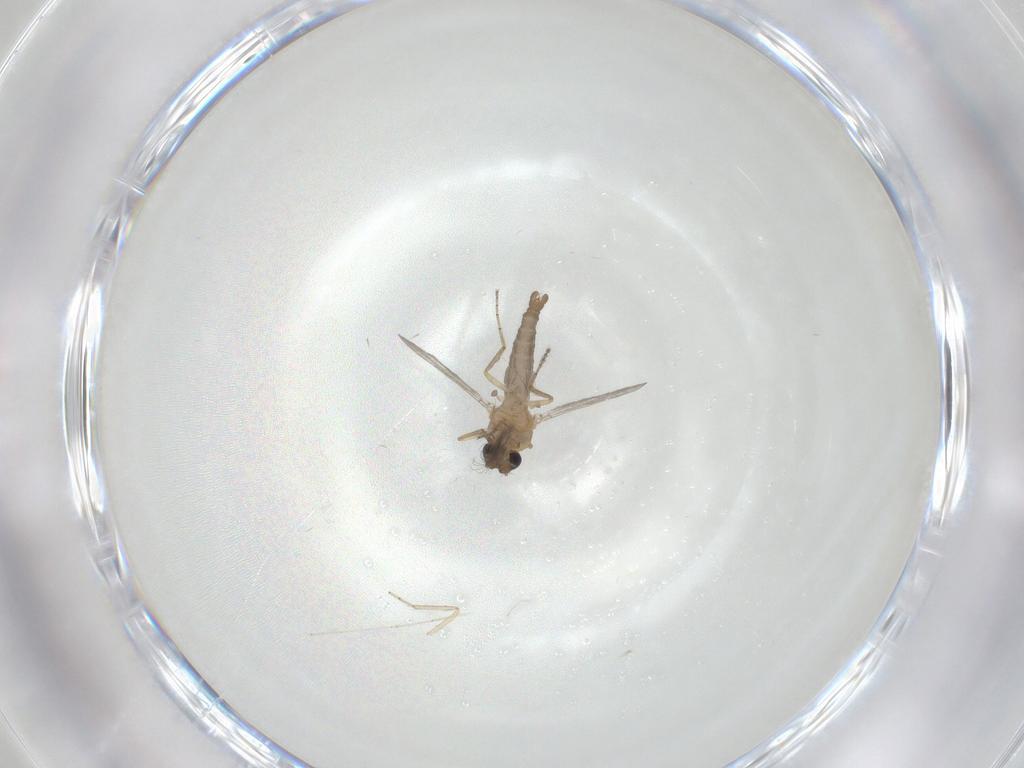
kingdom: Animalia
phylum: Arthropoda
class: Insecta
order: Diptera
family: Ceratopogonidae
